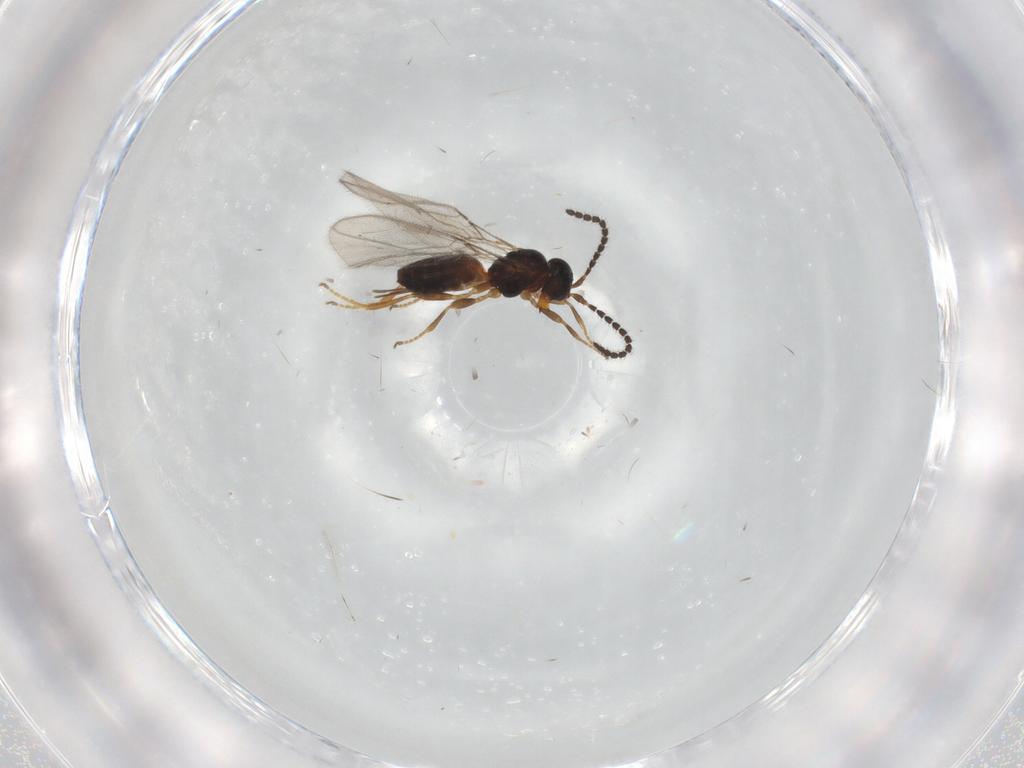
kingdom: Animalia
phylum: Arthropoda
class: Insecta
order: Hymenoptera
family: Braconidae
